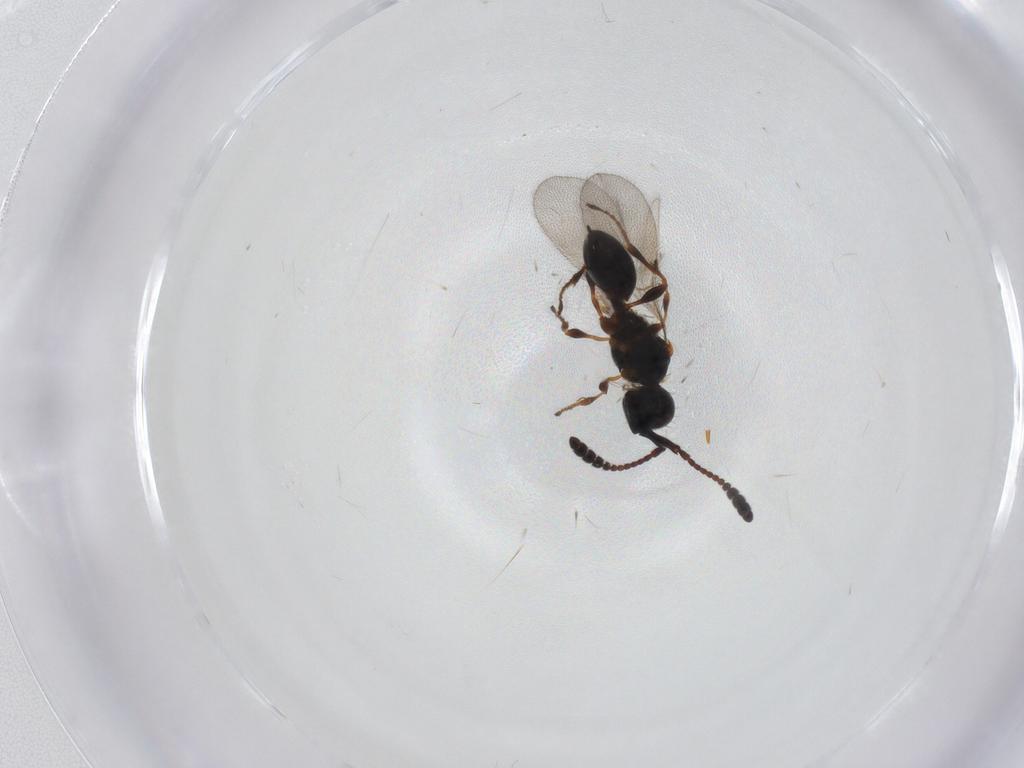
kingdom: Animalia
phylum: Arthropoda
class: Insecta
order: Hymenoptera
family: Diapriidae
